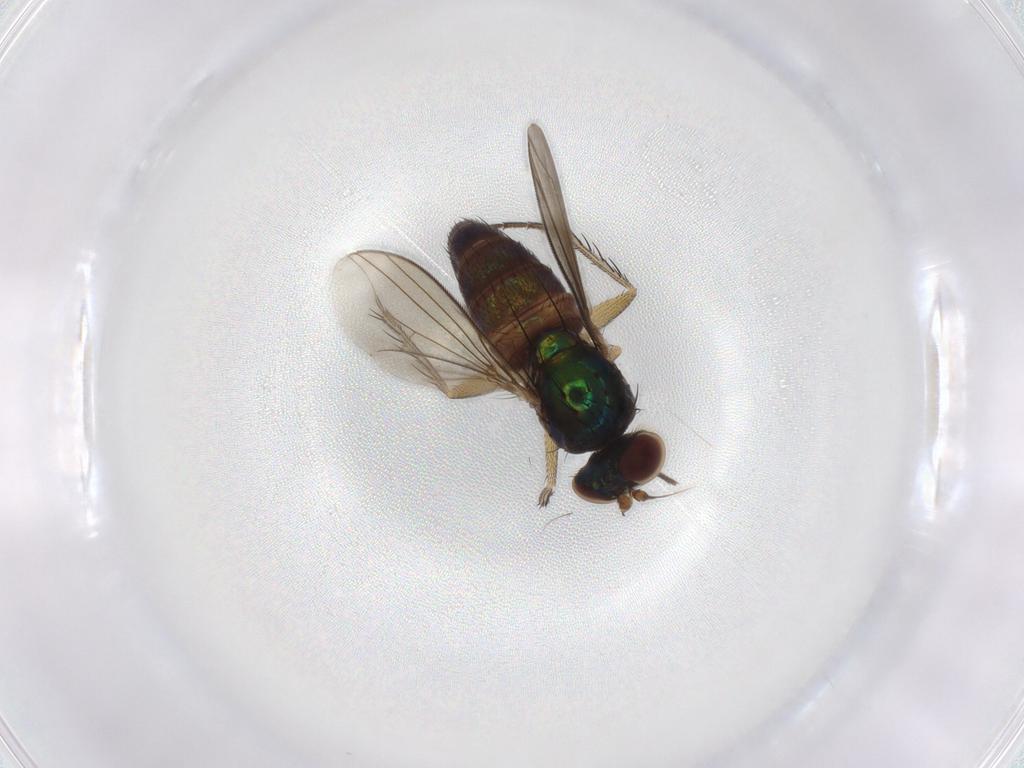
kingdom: Animalia
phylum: Arthropoda
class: Insecta
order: Diptera
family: Dolichopodidae
